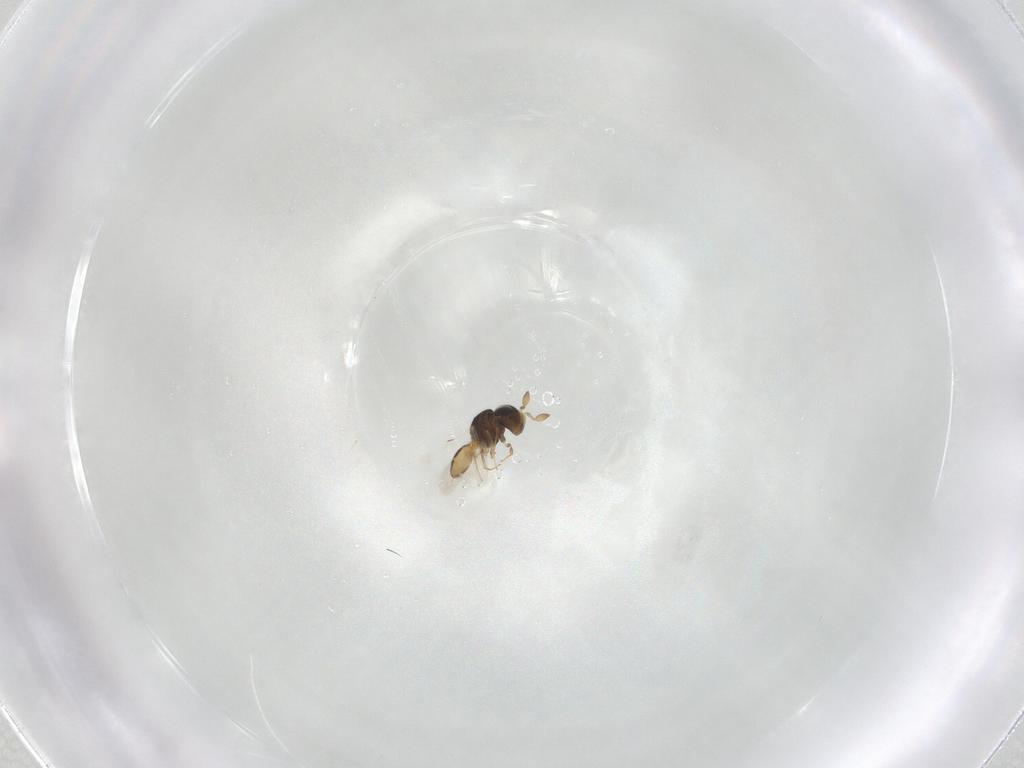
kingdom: Animalia
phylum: Arthropoda
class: Insecta
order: Hymenoptera
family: Scelionidae
